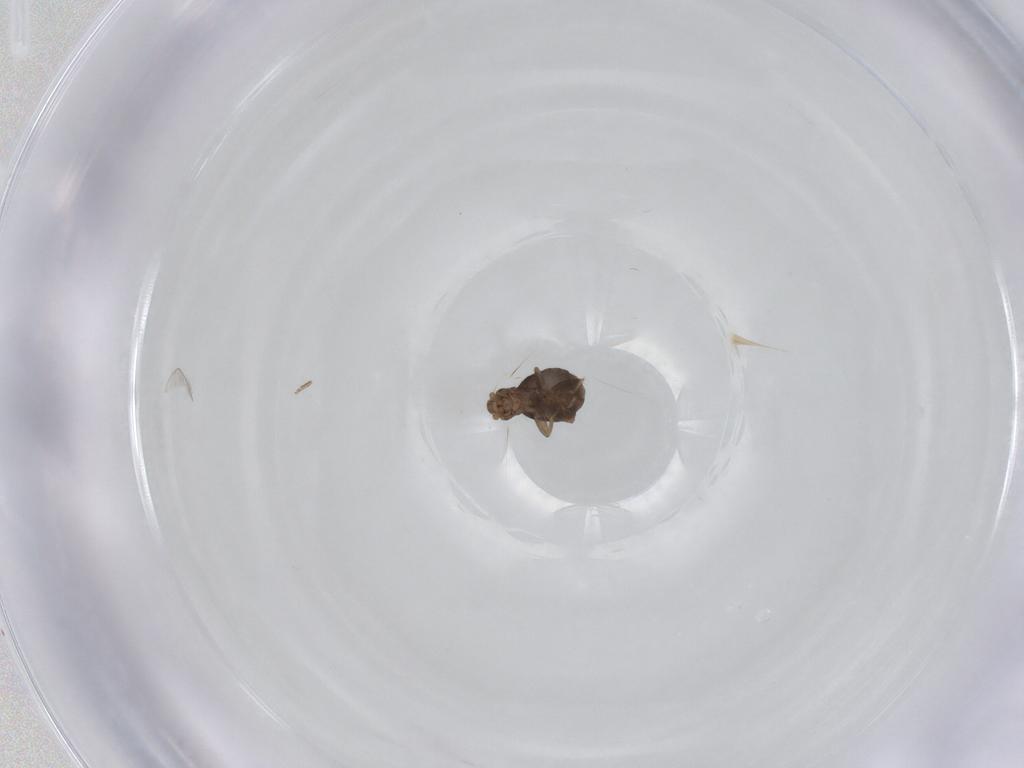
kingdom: Animalia
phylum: Arthropoda
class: Insecta
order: Diptera
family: Phoridae
